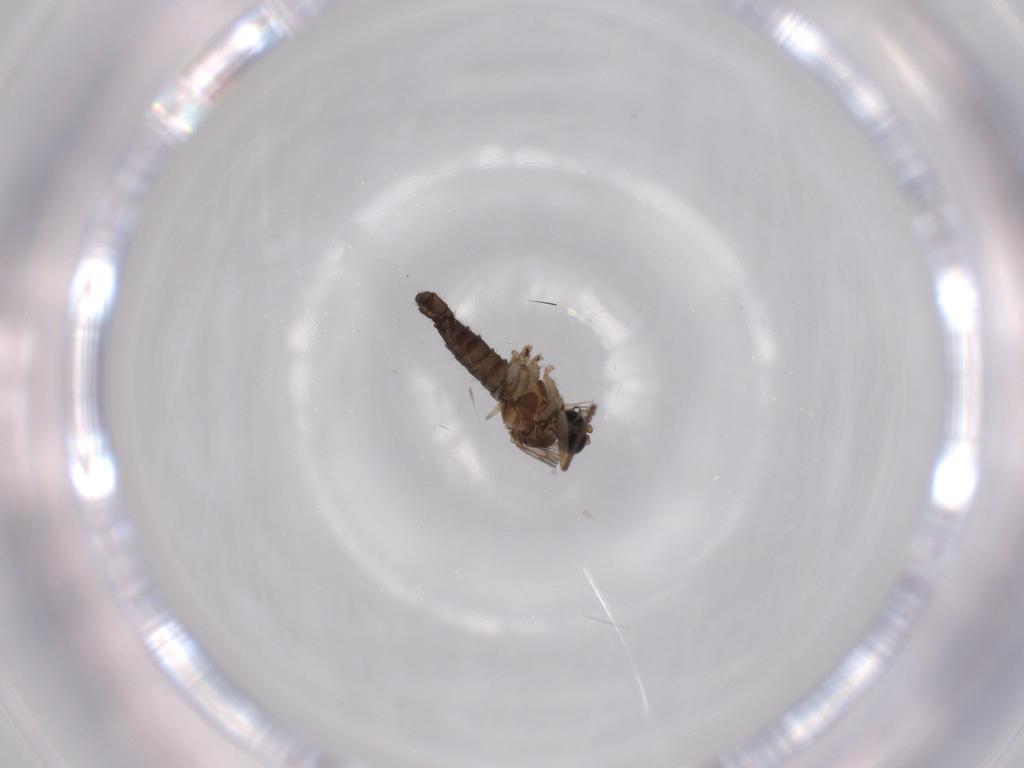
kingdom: Animalia
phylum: Arthropoda
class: Insecta
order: Diptera
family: Sciaridae
